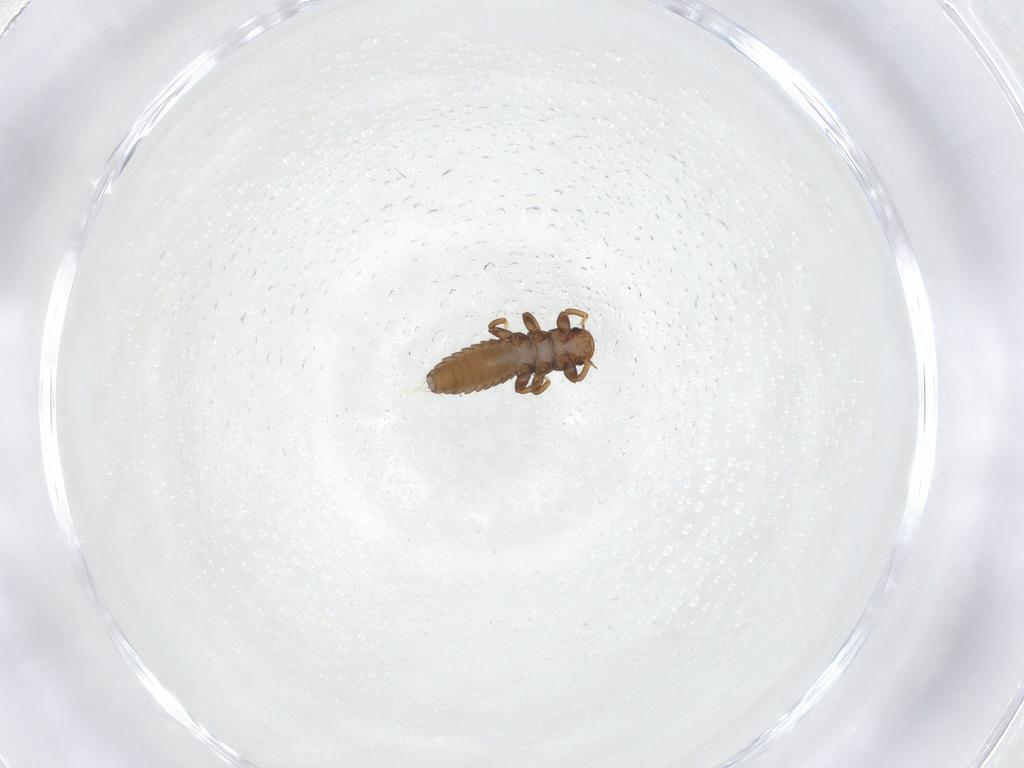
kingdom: Animalia
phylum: Arthropoda
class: Insecta
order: Coleoptera
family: Meloidae
